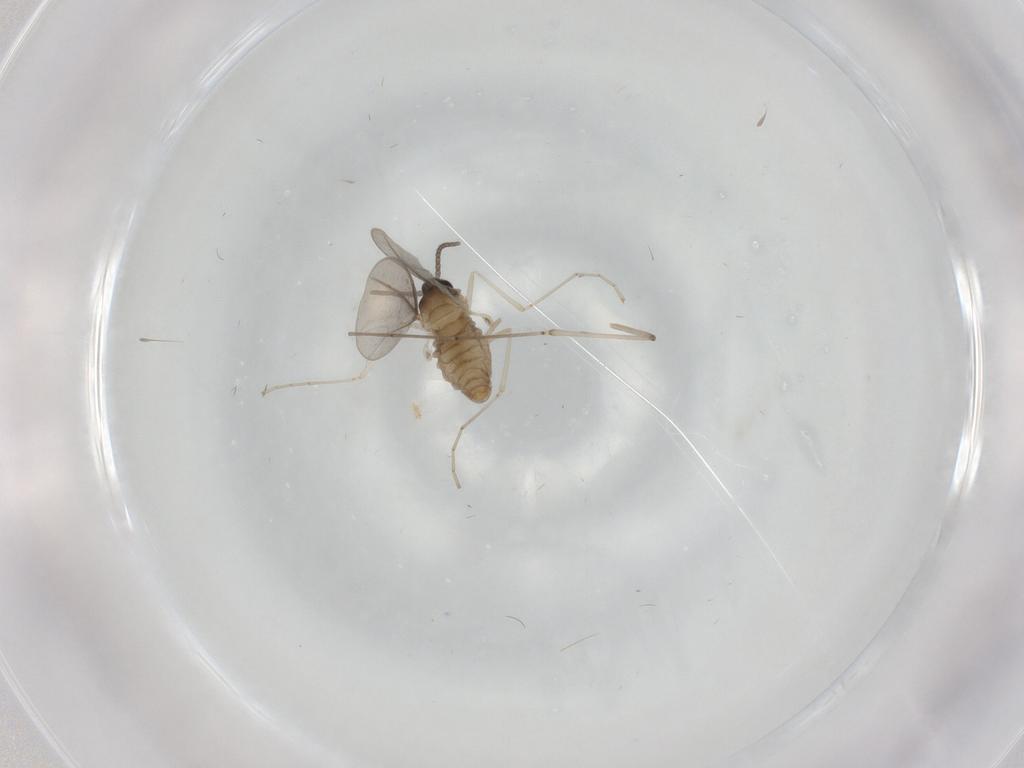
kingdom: Animalia
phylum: Arthropoda
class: Insecta
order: Diptera
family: Cecidomyiidae
